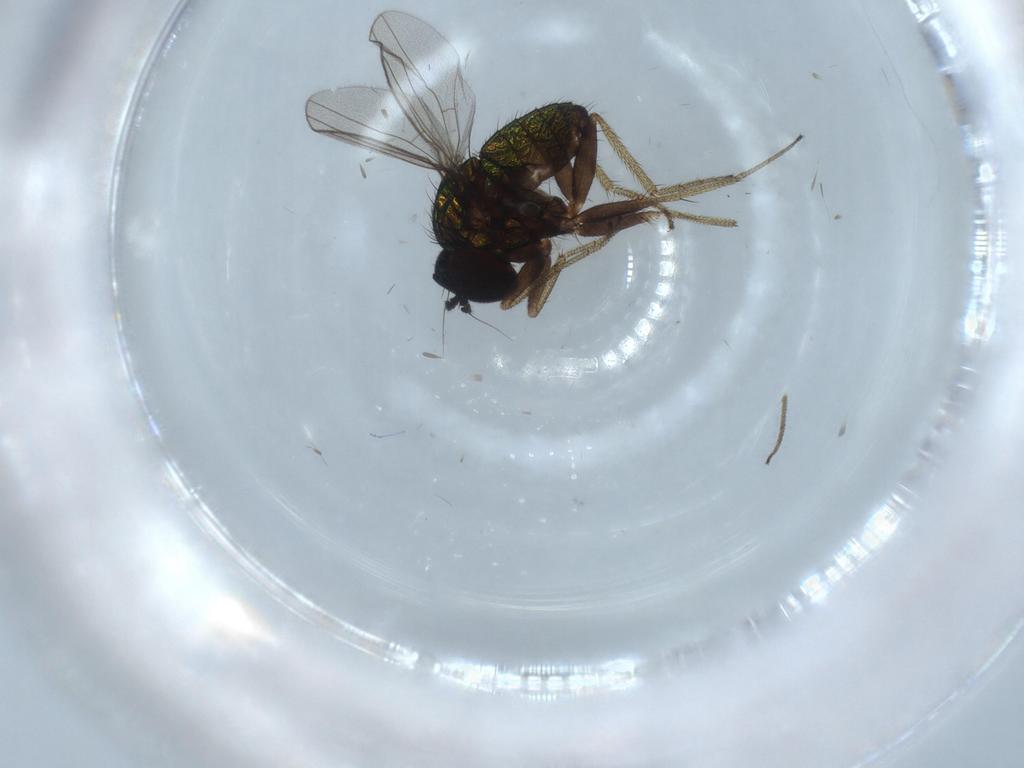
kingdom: Animalia
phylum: Arthropoda
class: Insecta
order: Diptera
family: Dolichopodidae
